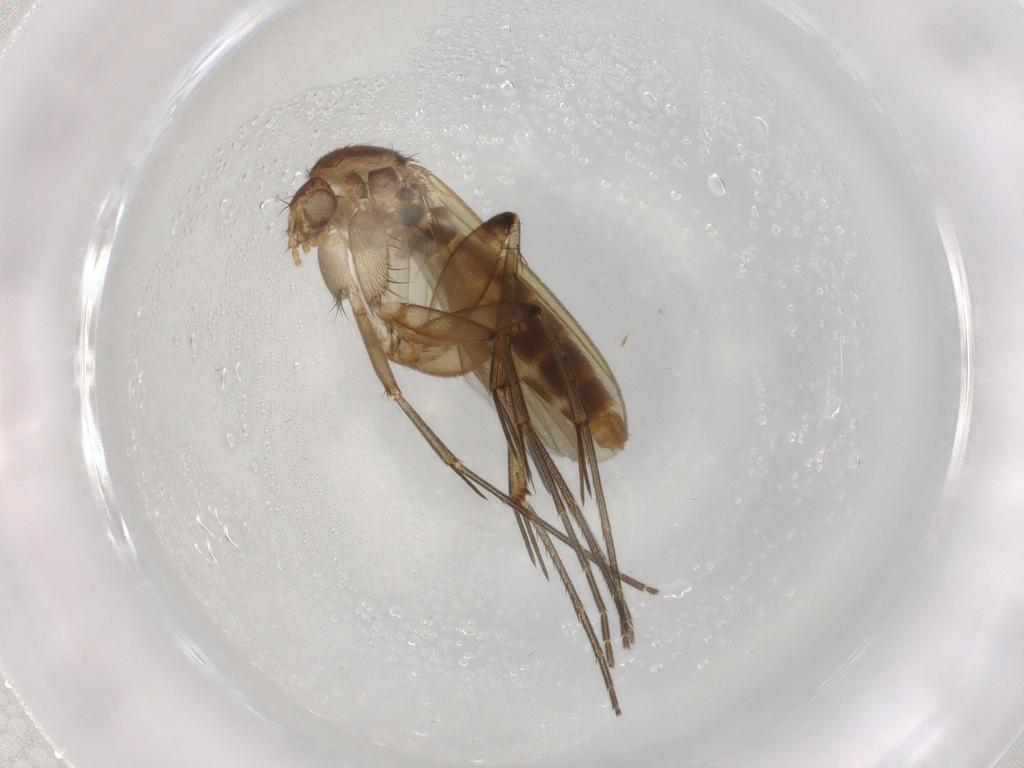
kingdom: Animalia
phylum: Arthropoda
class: Insecta
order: Diptera
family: Mycetophilidae
